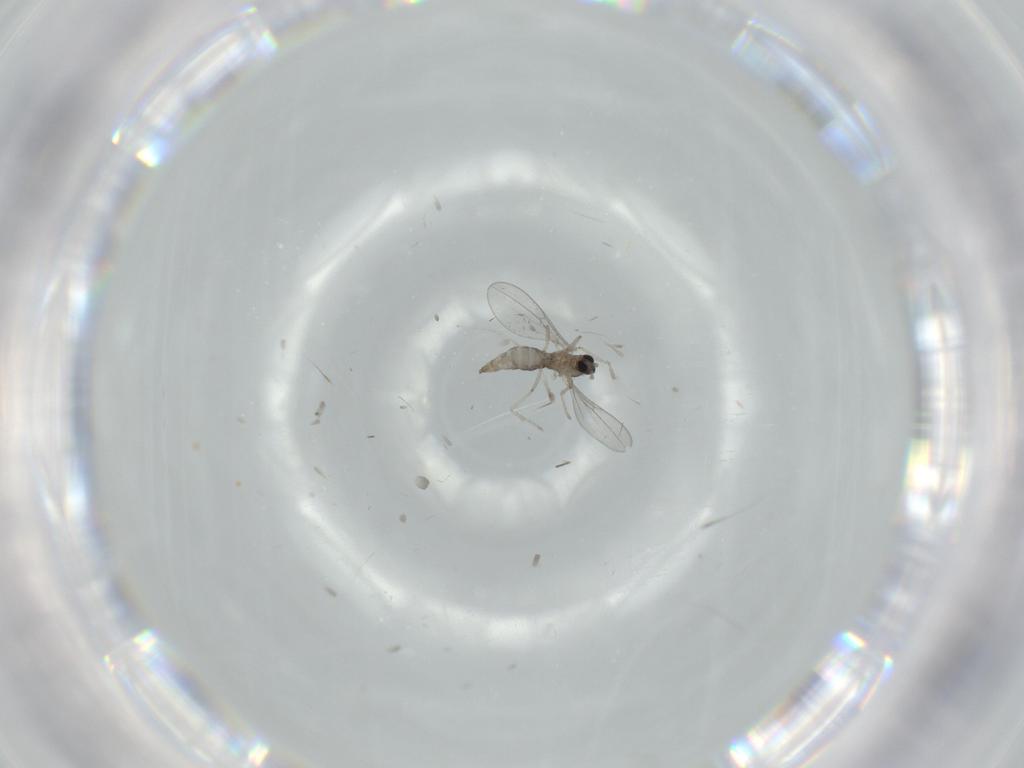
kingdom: Animalia
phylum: Arthropoda
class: Insecta
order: Diptera
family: Cecidomyiidae
